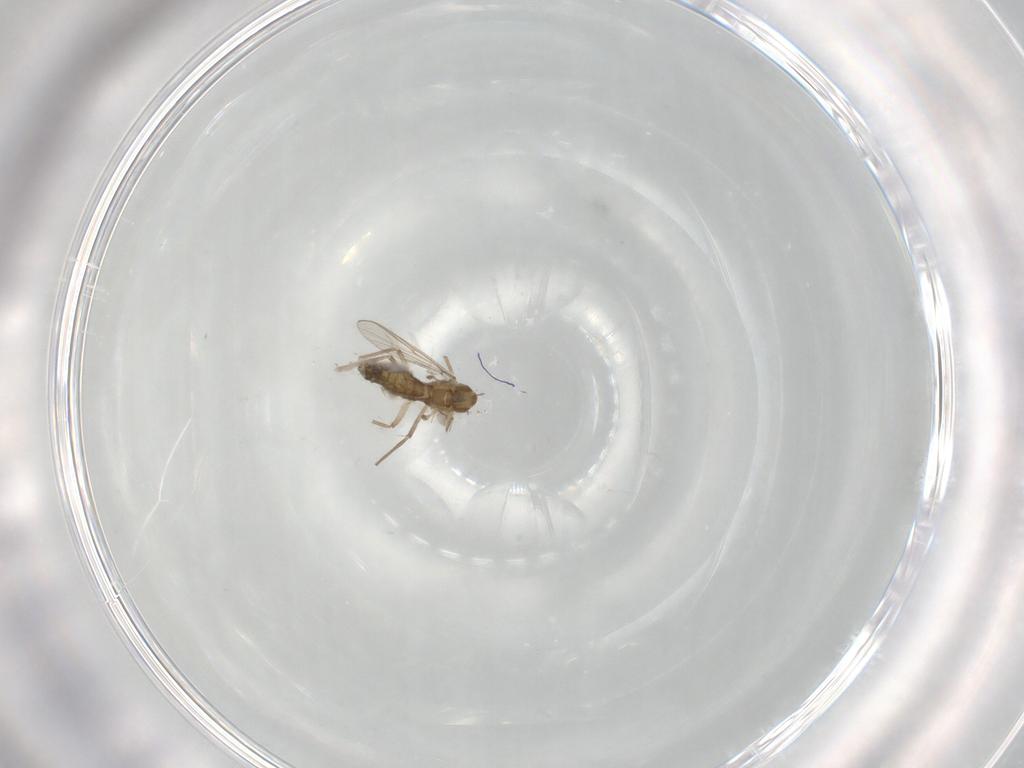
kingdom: Animalia
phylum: Arthropoda
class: Insecta
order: Diptera
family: Chironomidae
